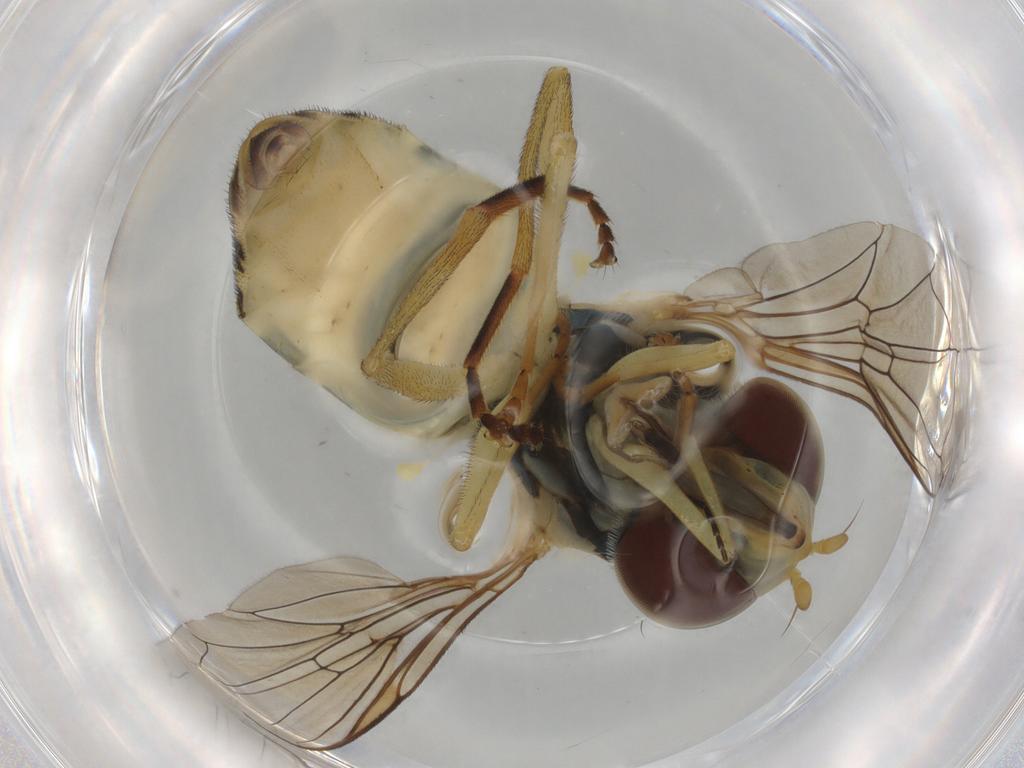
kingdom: Animalia
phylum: Arthropoda
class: Insecta
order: Diptera
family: Syrphidae
